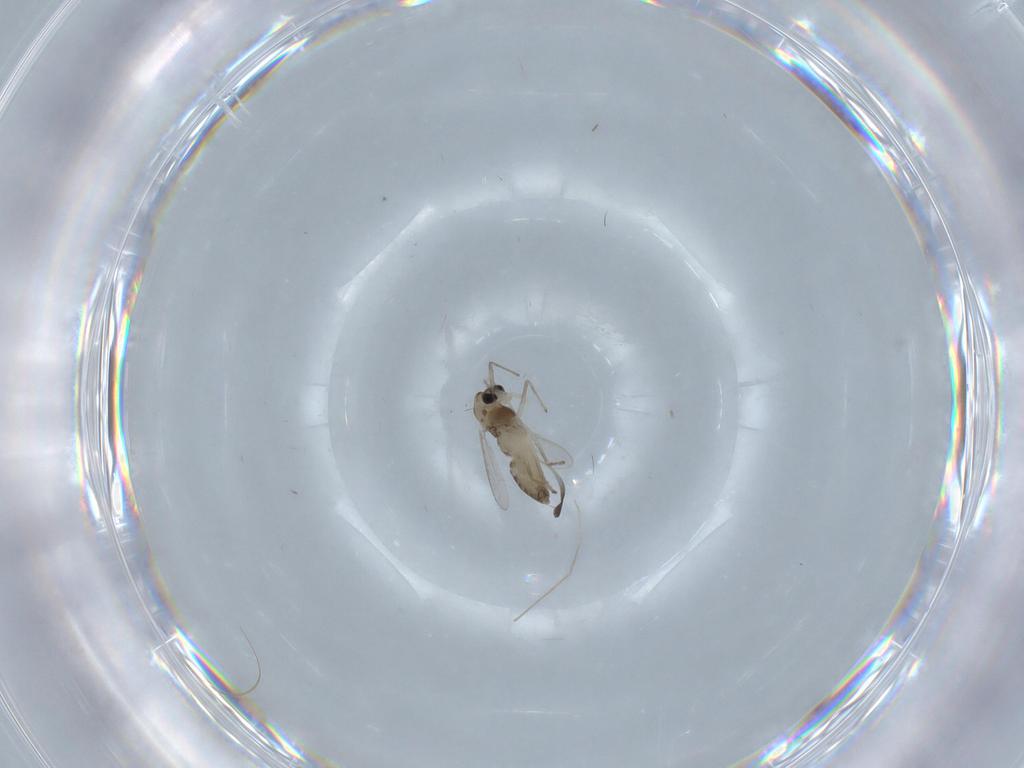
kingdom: Animalia
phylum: Arthropoda
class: Insecta
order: Diptera
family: Chironomidae
